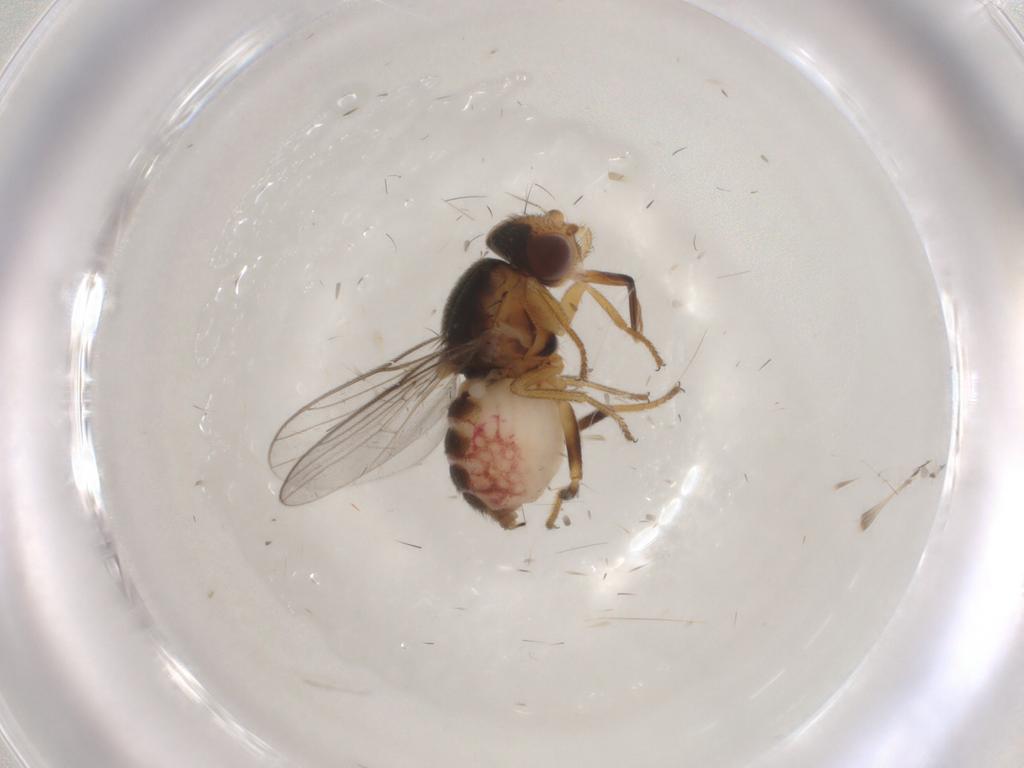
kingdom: Animalia
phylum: Arthropoda
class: Insecta
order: Diptera
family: Chloropidae
